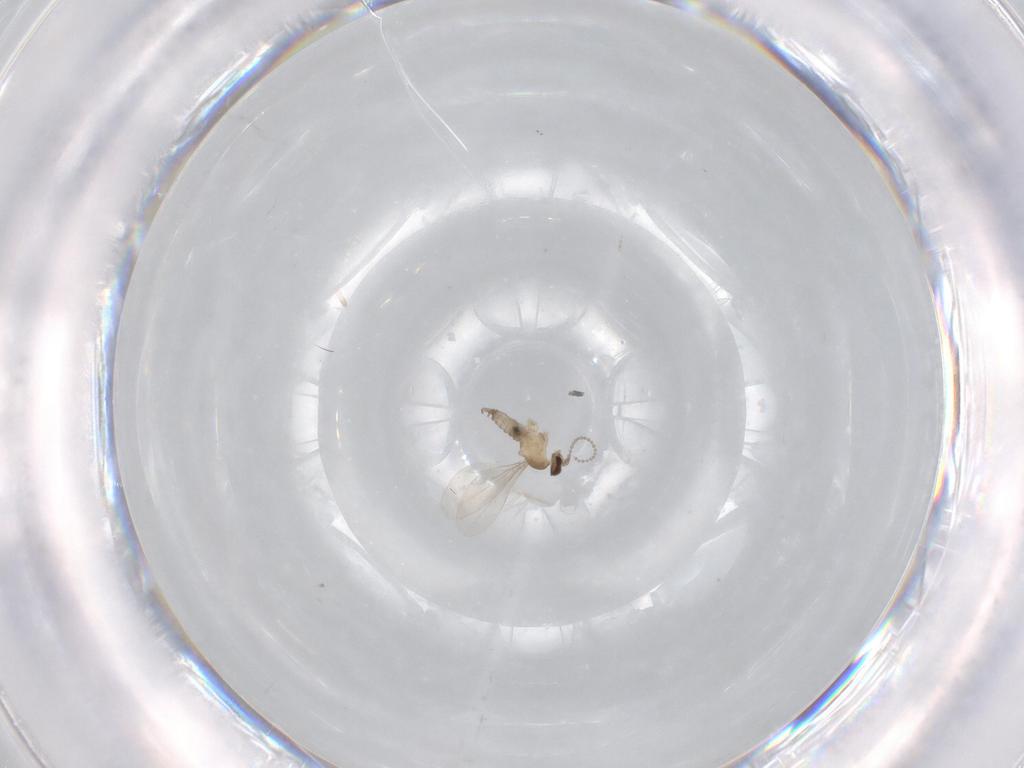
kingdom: Animalia
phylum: Arthropoda
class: Insecta
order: Diptera
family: Cecidomyiidae
